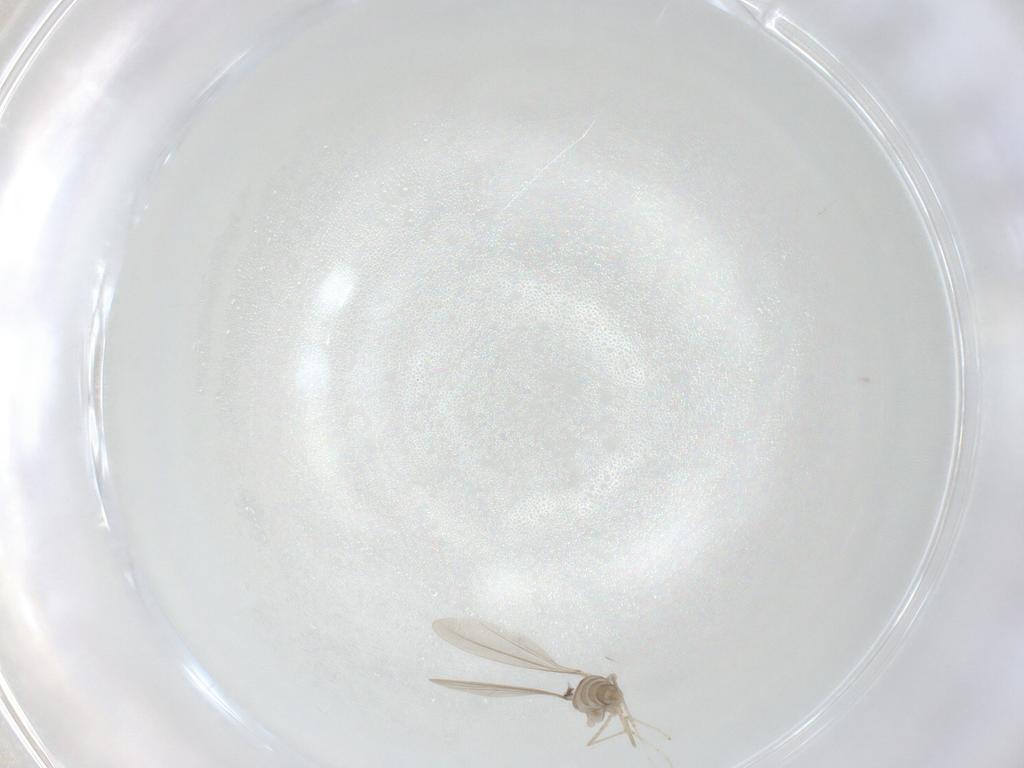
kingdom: Animalia
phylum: Arthropoda
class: Insecta
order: Diptera
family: Cecidomyiidae
